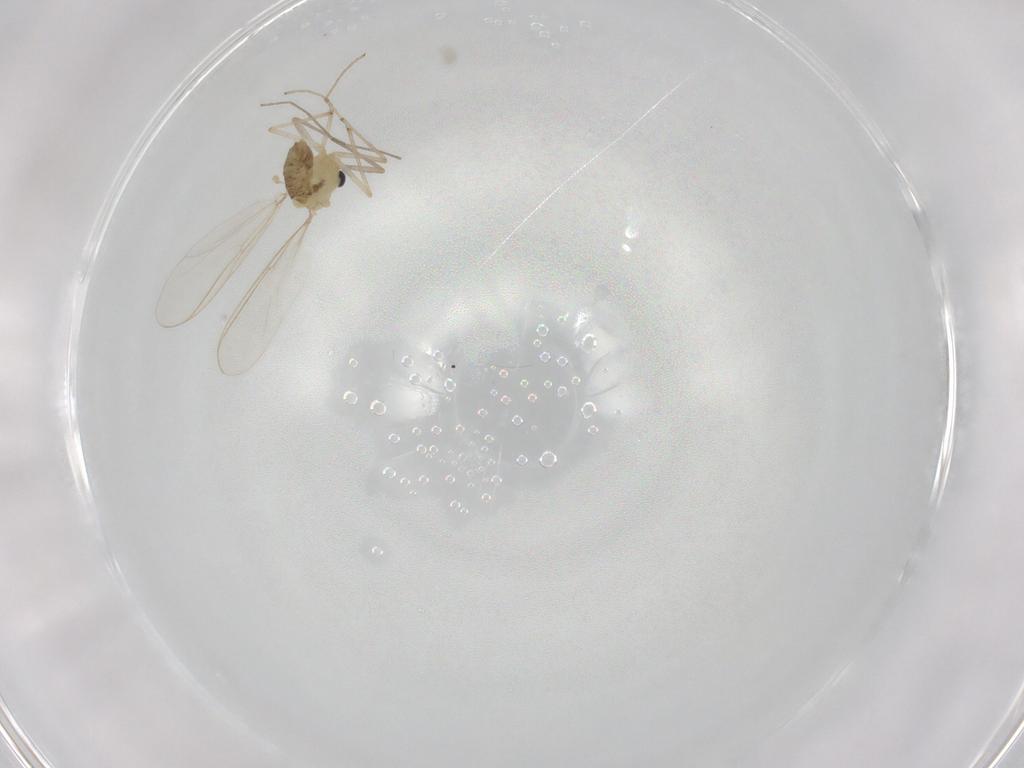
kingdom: Animalia
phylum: Arthropoda
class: Insecta
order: Diptera
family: Chironomidae
